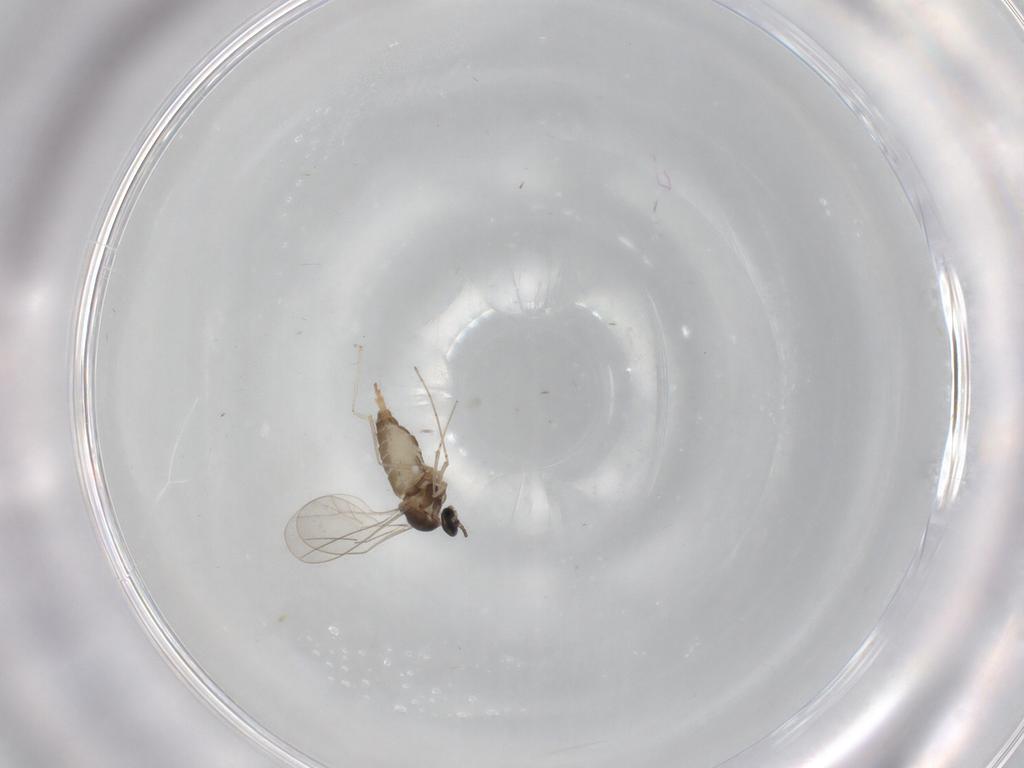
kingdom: Animalia
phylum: Arthropoda
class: Insecta
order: Diptera
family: Cecidomyiidae
